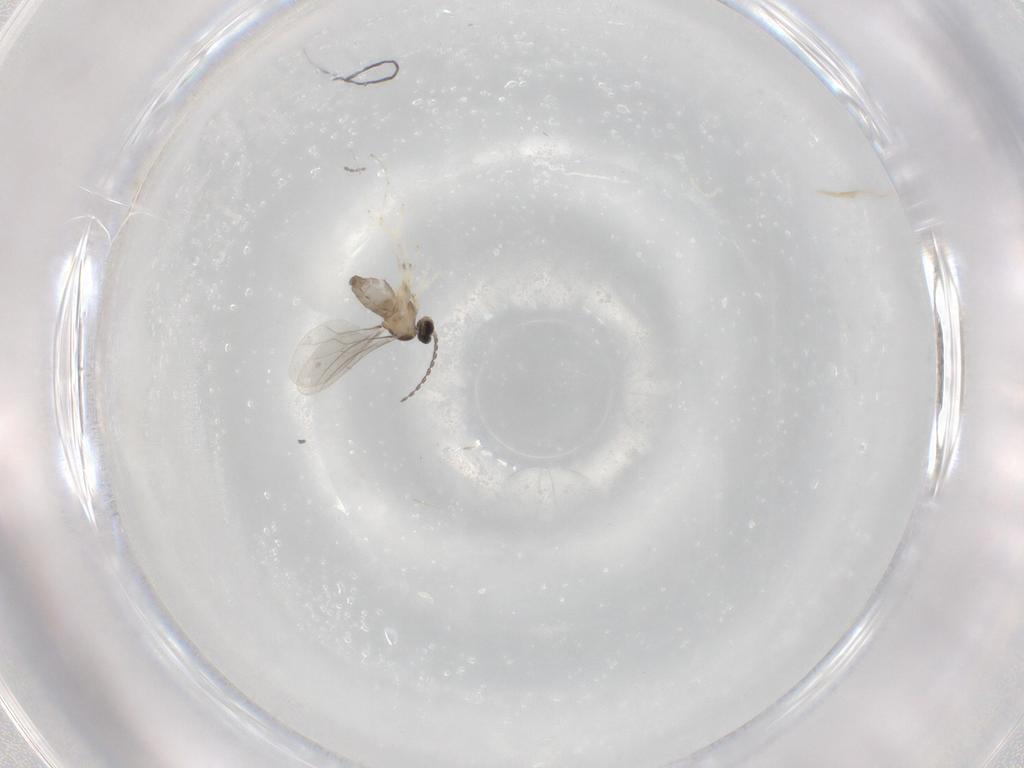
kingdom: Animalia
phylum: Arthropoda
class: Insecta
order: Diptera
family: Cecidomyiidae
